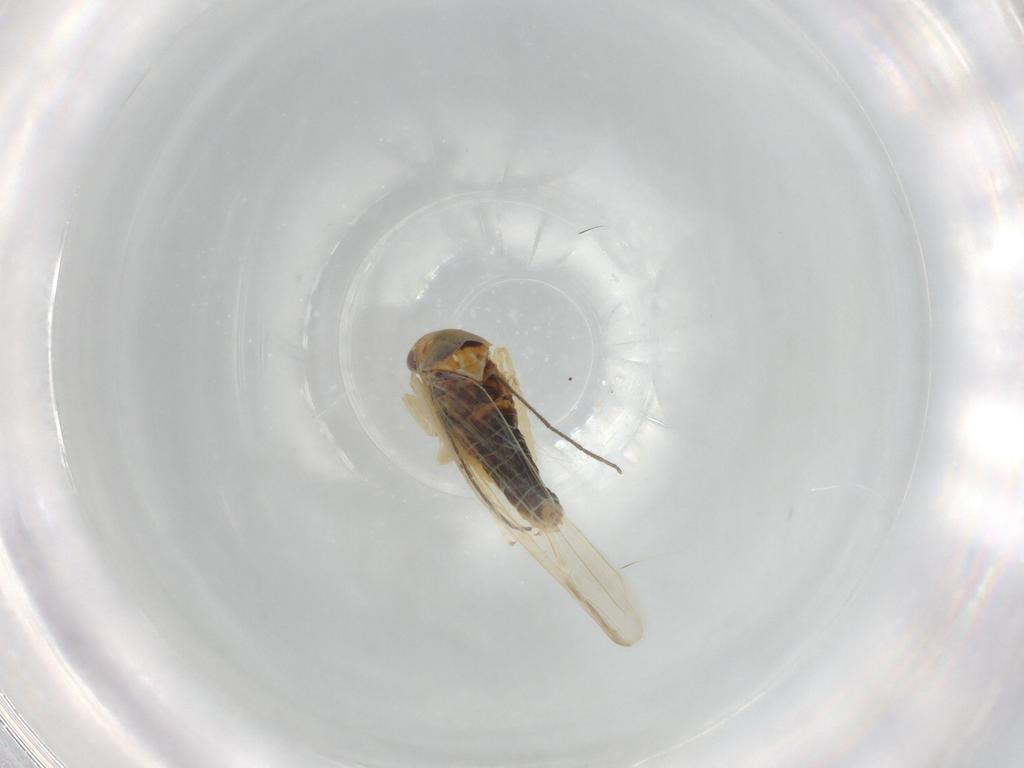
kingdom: Animalia
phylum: Arthropoda
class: Insecta
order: Hemiptera
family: Cicadellidae
